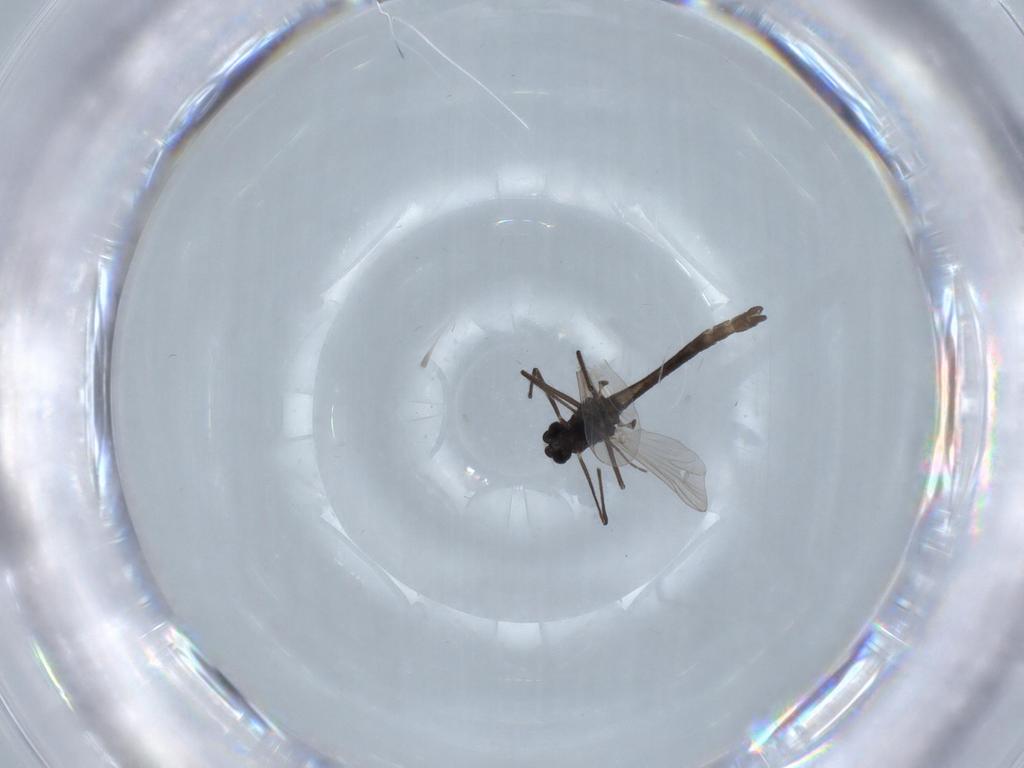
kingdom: Animalia
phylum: Arthropoda
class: Insecta
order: Diptera
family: Chironomidae
